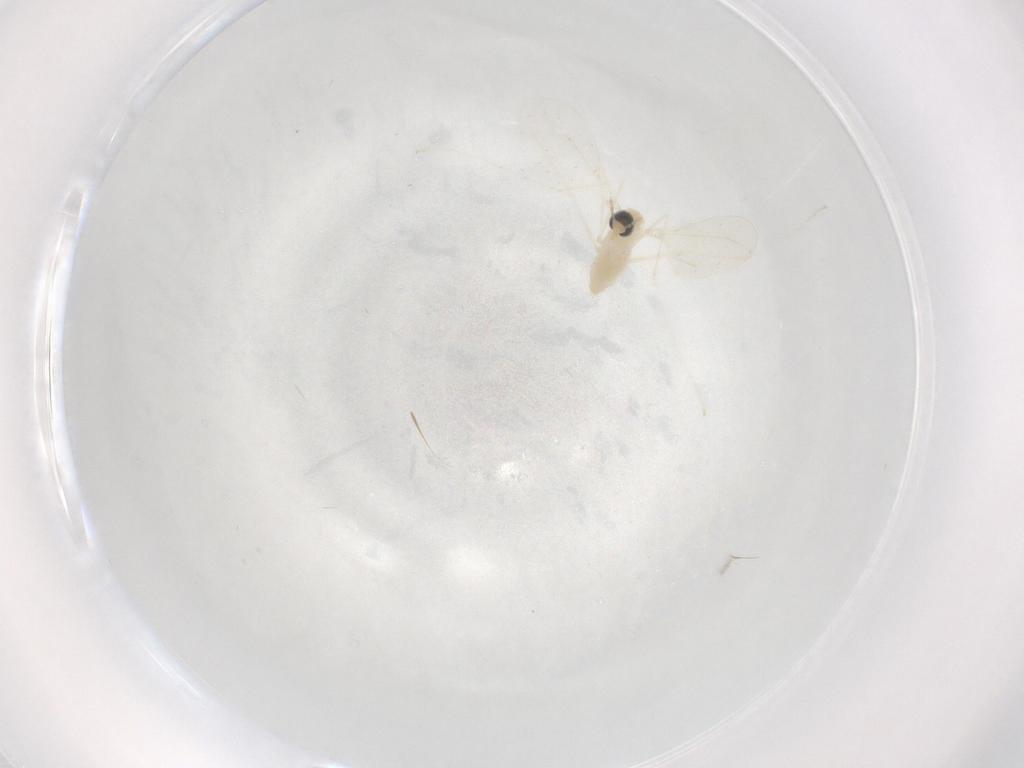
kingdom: Animalia
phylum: Arthropoda
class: Insecta
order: Diptera
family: Cecidomyiidae
